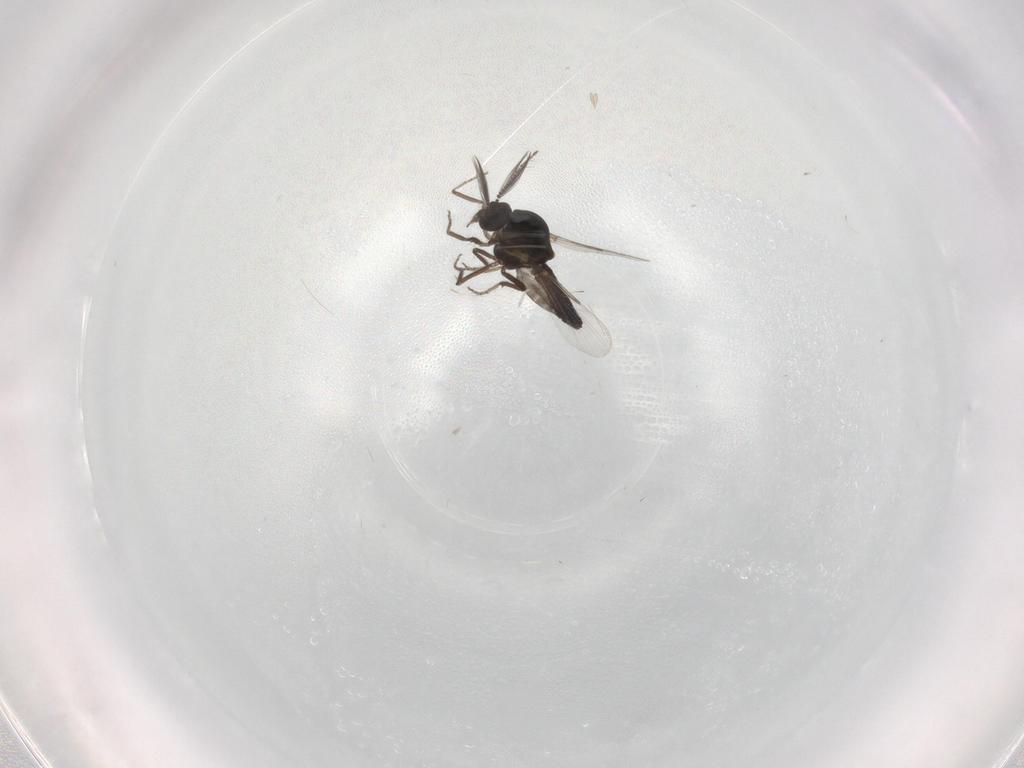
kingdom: Animalia
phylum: Arthropoda
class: Insecta
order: Diptera
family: Ceratopogonidae
